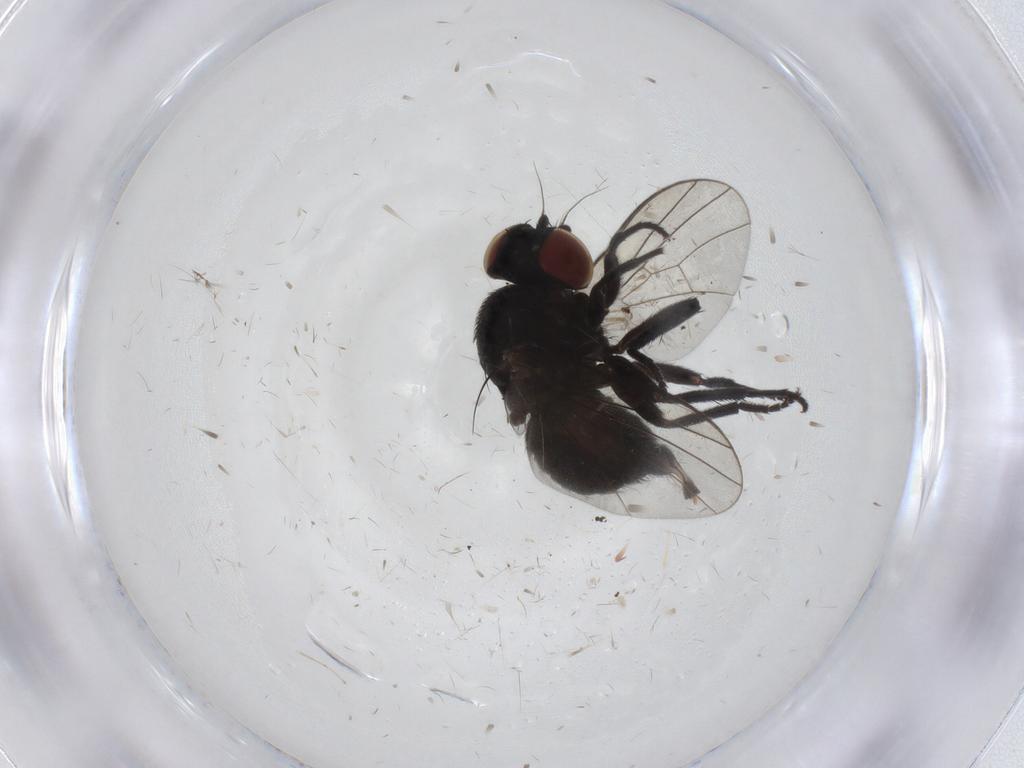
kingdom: Animalia
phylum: Arthropoda
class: Insecta
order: Diptera
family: Agromyzidae
